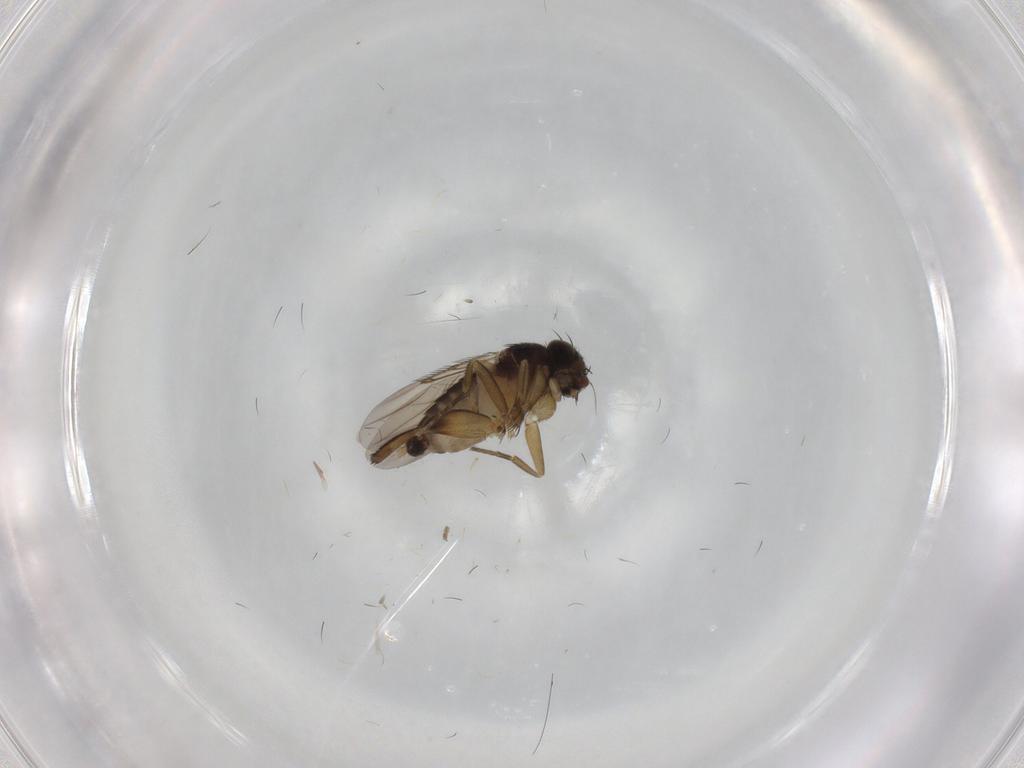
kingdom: Animalia
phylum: Arthropoda
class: Insecta
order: Diptera
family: Phoridae
